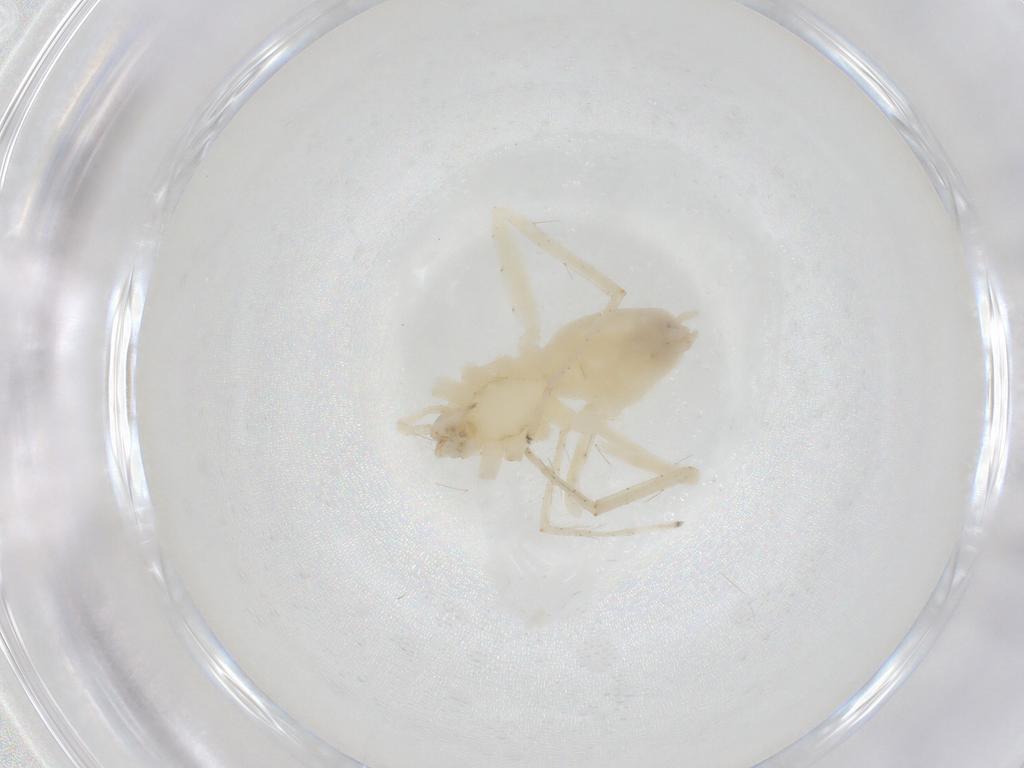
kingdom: Animalia
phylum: Arthropoda
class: Arachnida
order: Araneae
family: Anyphaenidae
